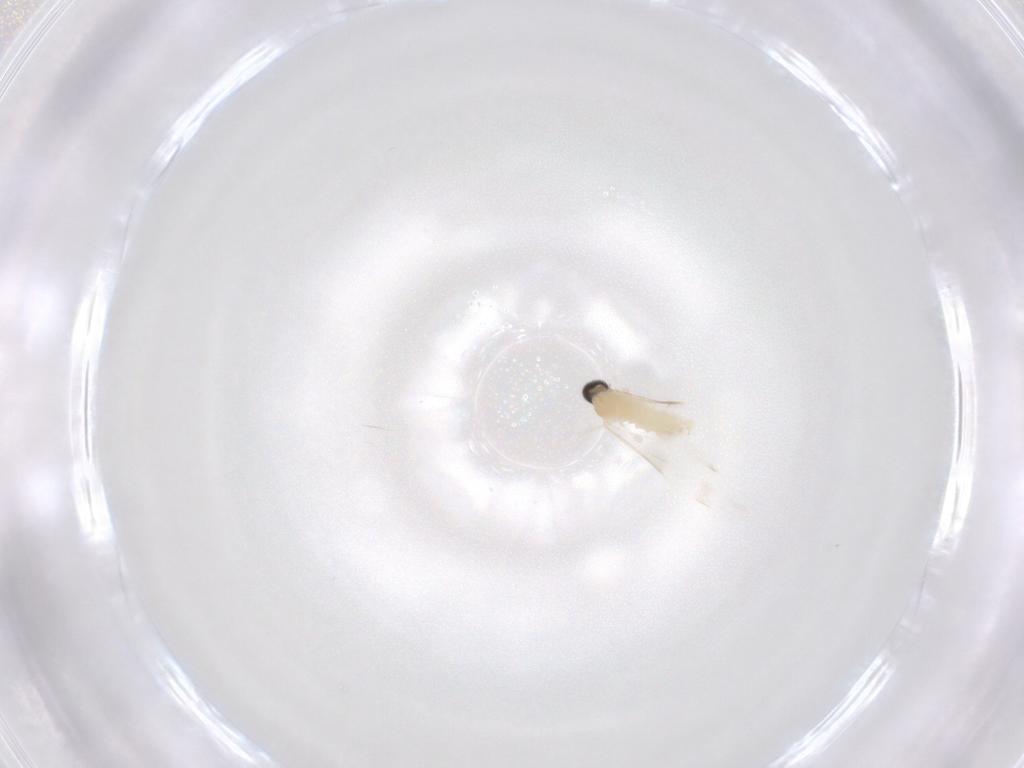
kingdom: Animalia
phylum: Arthropoda
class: Insecta
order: Diptera
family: Cecidomyiidae
